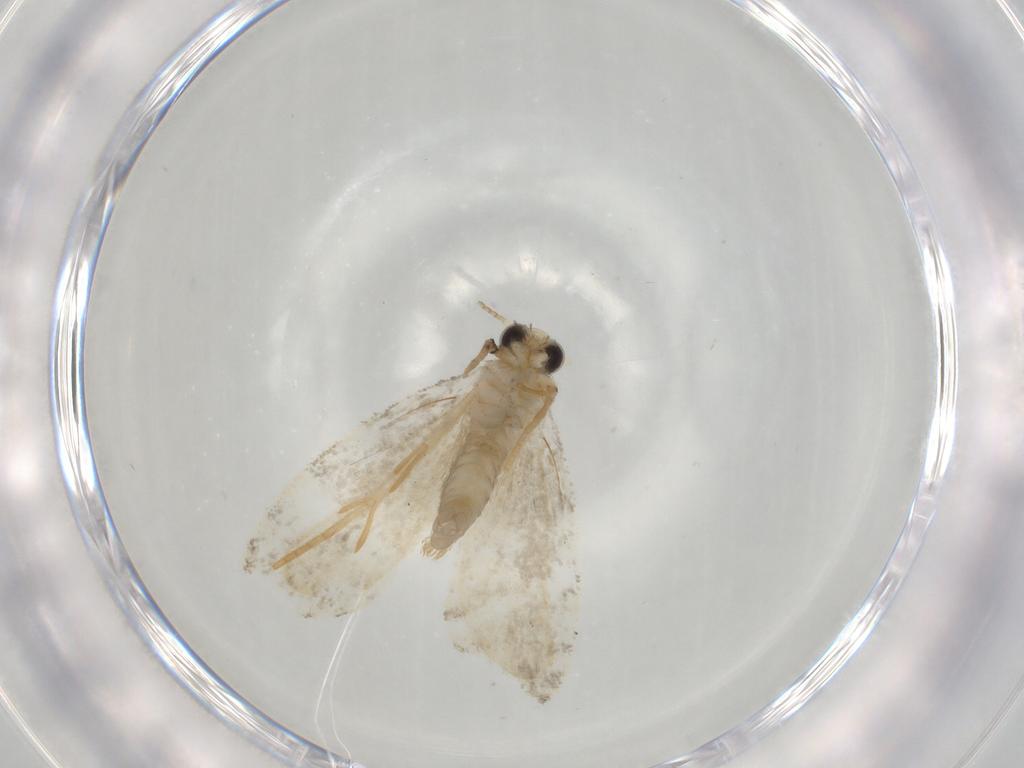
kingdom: Animalia
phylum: Arthropoda
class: Insecta
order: Lepidoptera
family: Psychidae
